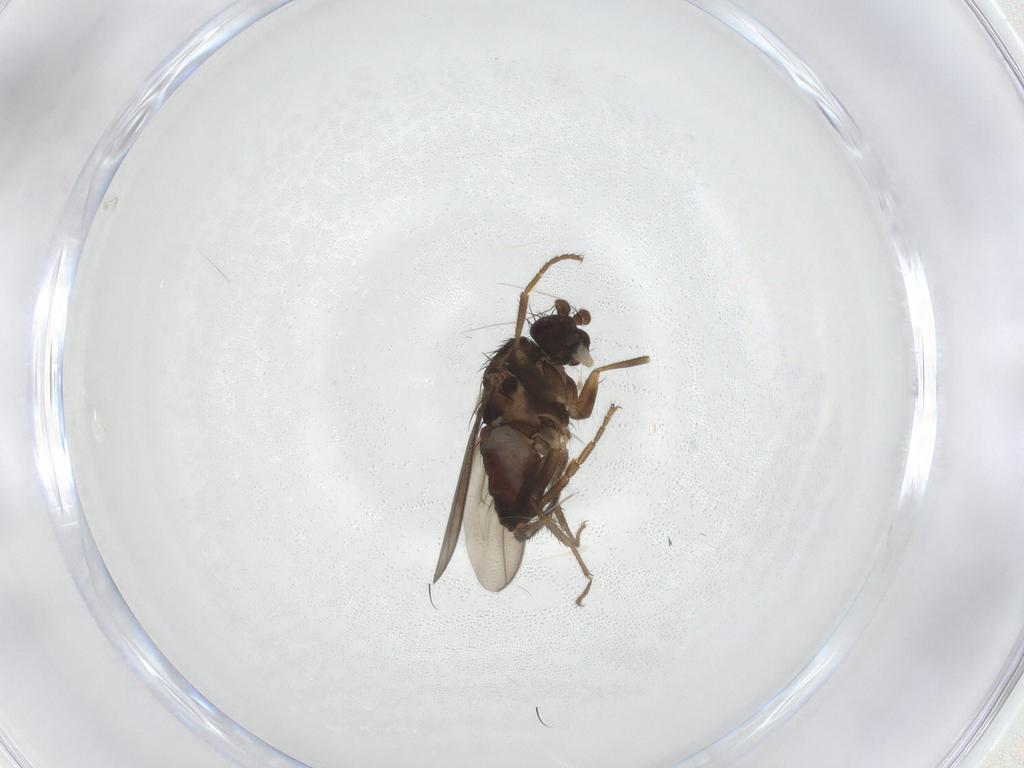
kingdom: Animalia
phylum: Arthropoda
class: Insecta
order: Diptera
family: Sphaeroceridae
